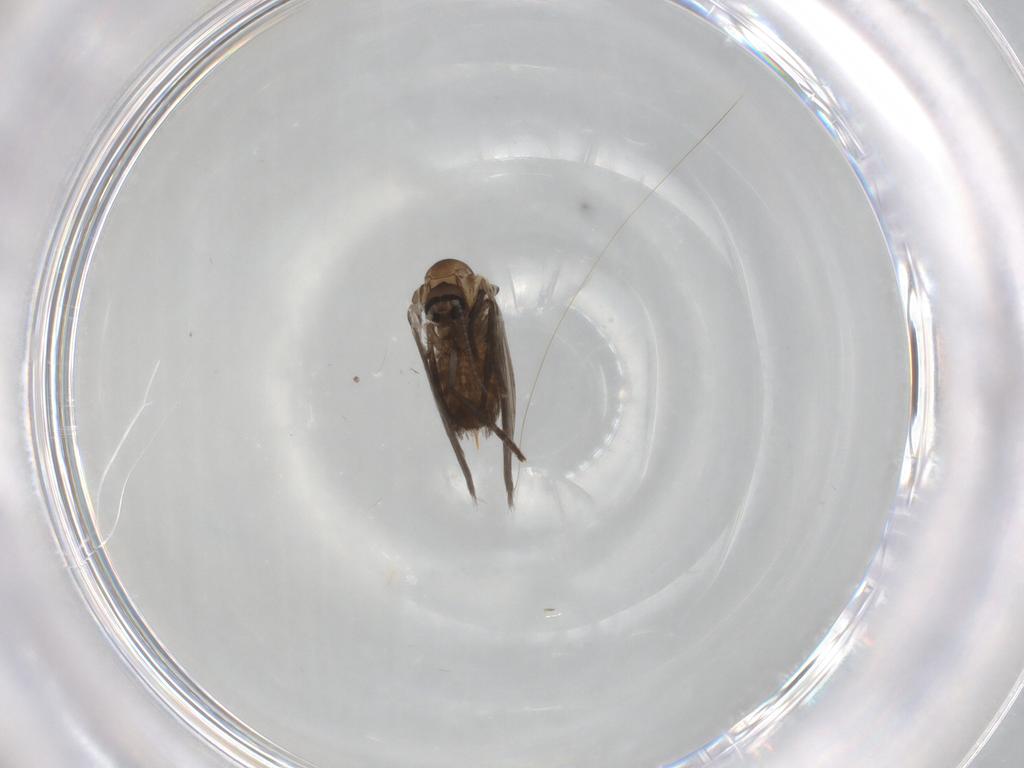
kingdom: Animalia
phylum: Arthropoda
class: Insecta
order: Diptera
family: Psychodidae
